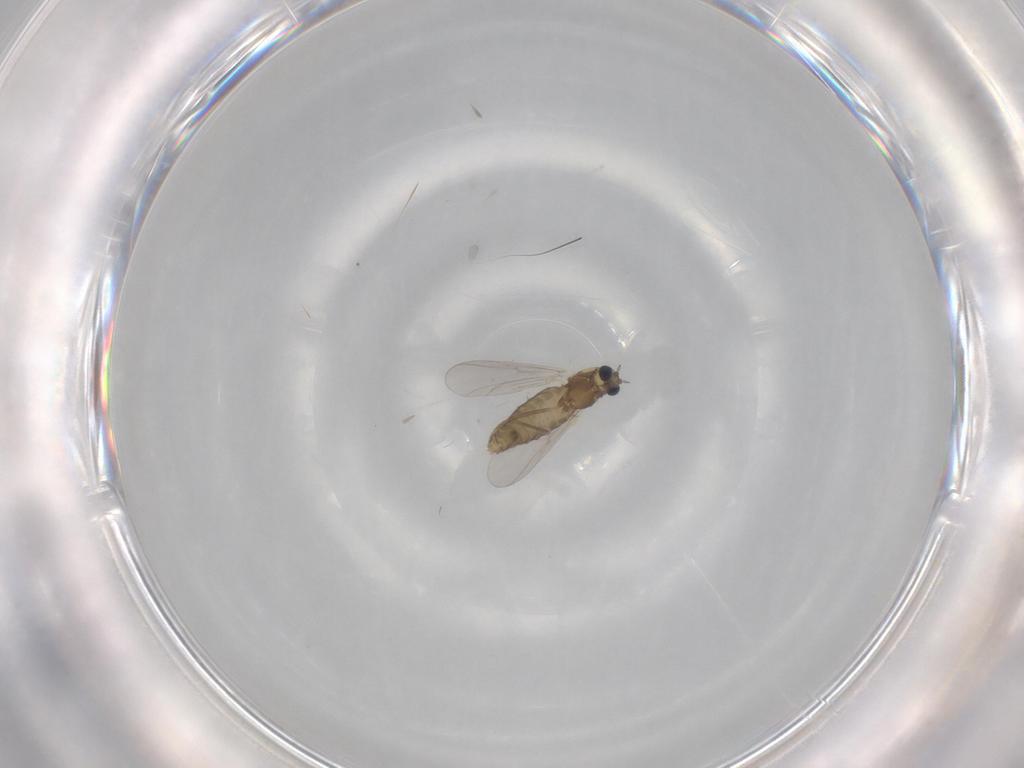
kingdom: Animalia
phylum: Arthropoda
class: Insecta
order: Diptera
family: Chironomidae
